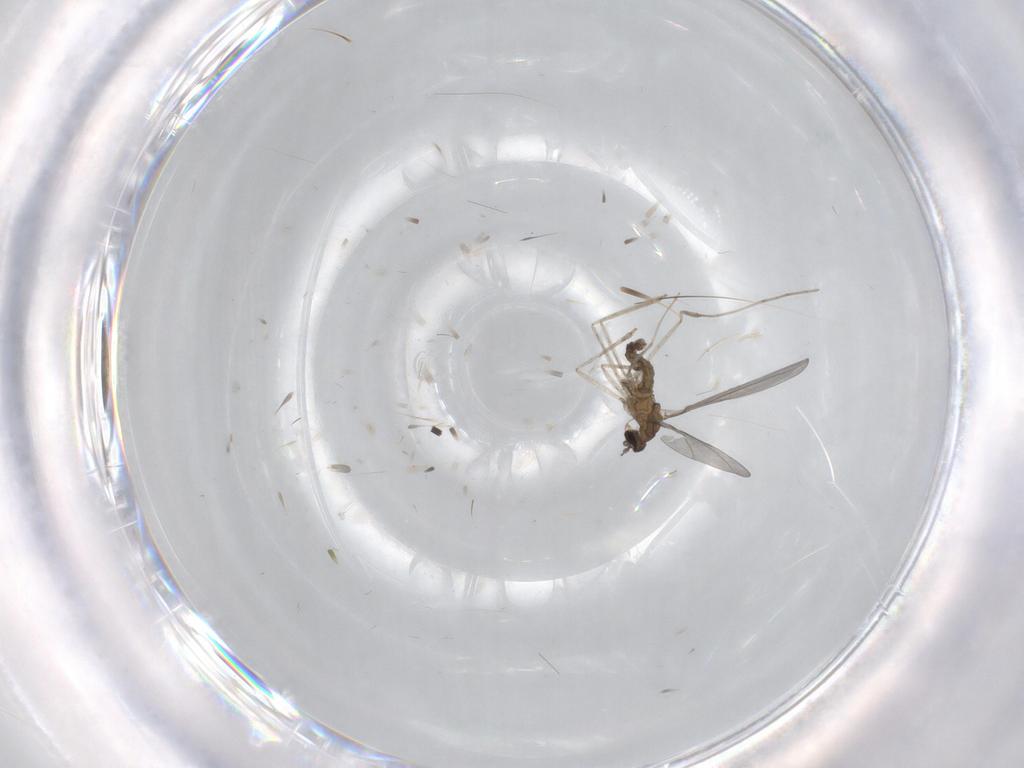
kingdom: Animalia
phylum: Arthropoda
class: Insecta
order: Diptera
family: Cecidomyiidae
